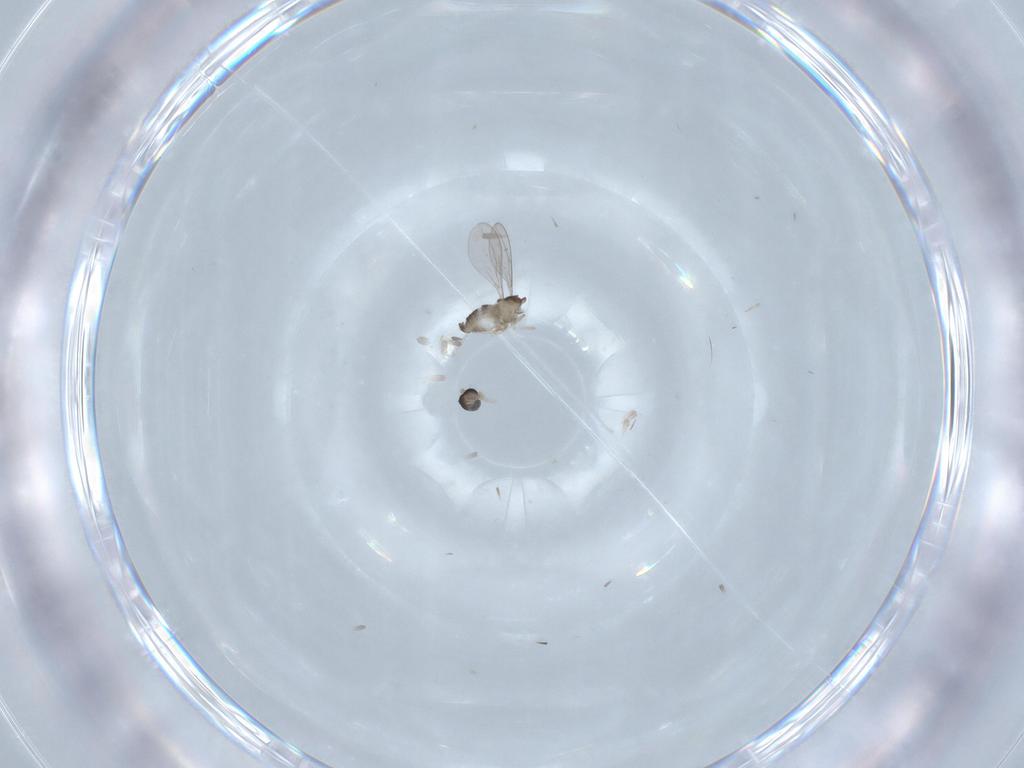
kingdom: Animalia
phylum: Arthropoda
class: Insecta
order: Diptera
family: Cecidomyiidae
